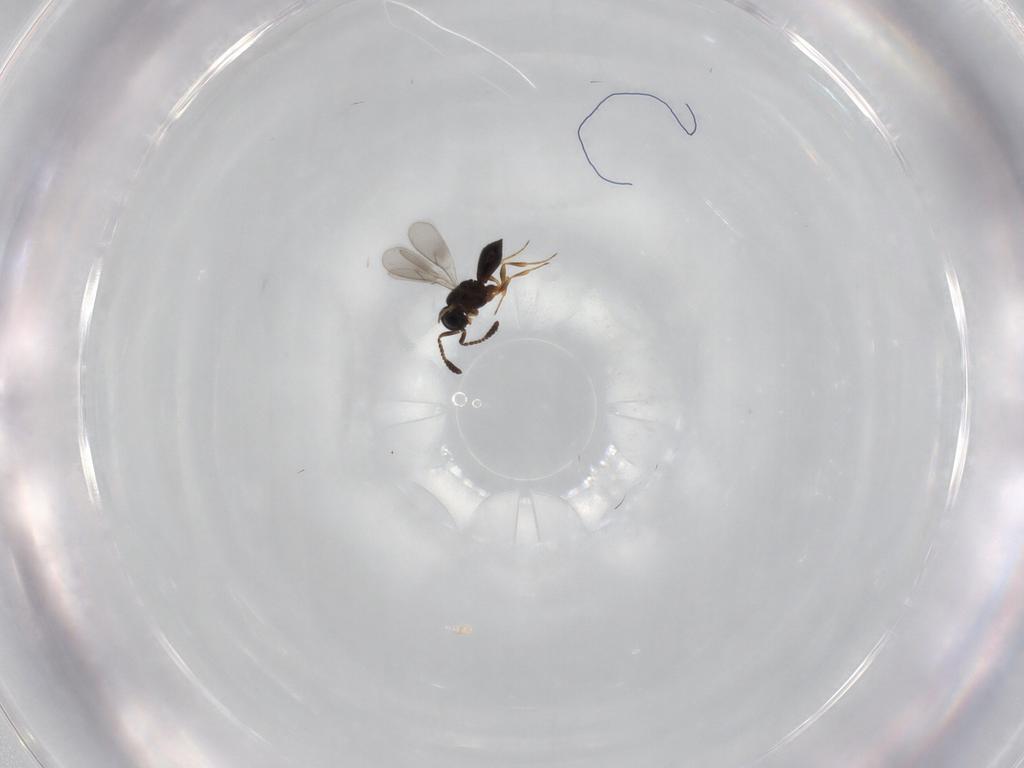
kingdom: Animalia
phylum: Arthropoda
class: Insecta
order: Hymenoptera
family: Scelionidae
